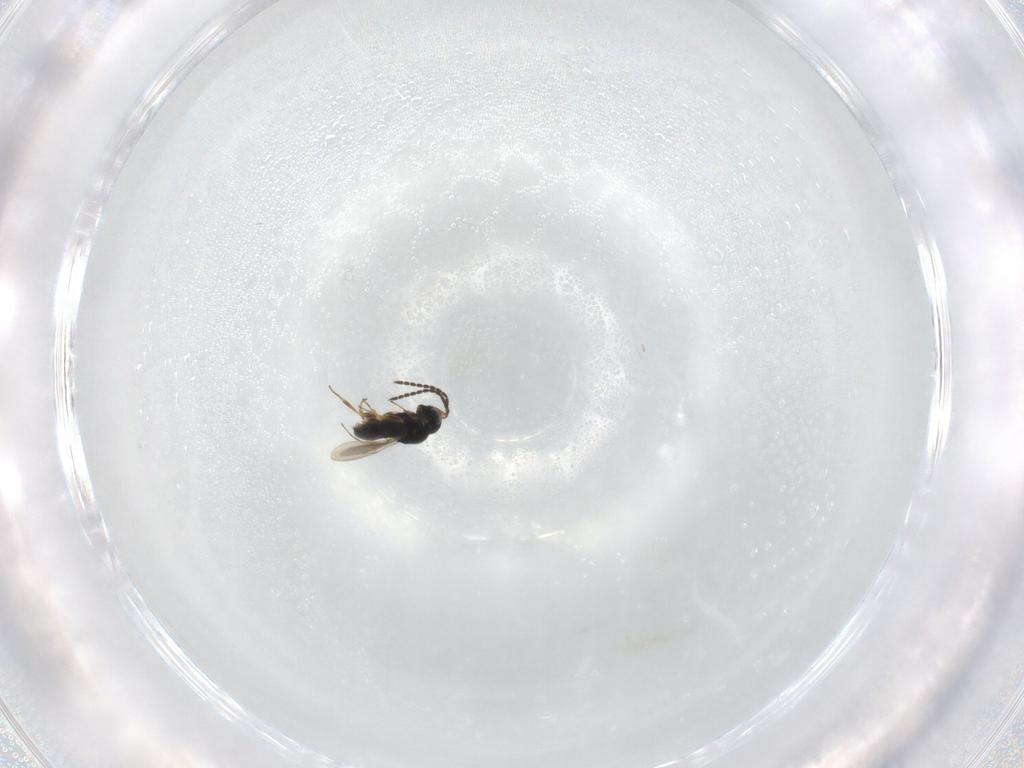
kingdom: Animalia
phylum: Arthropoda
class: Insecta
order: Hymenoptera
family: Scelionidae
